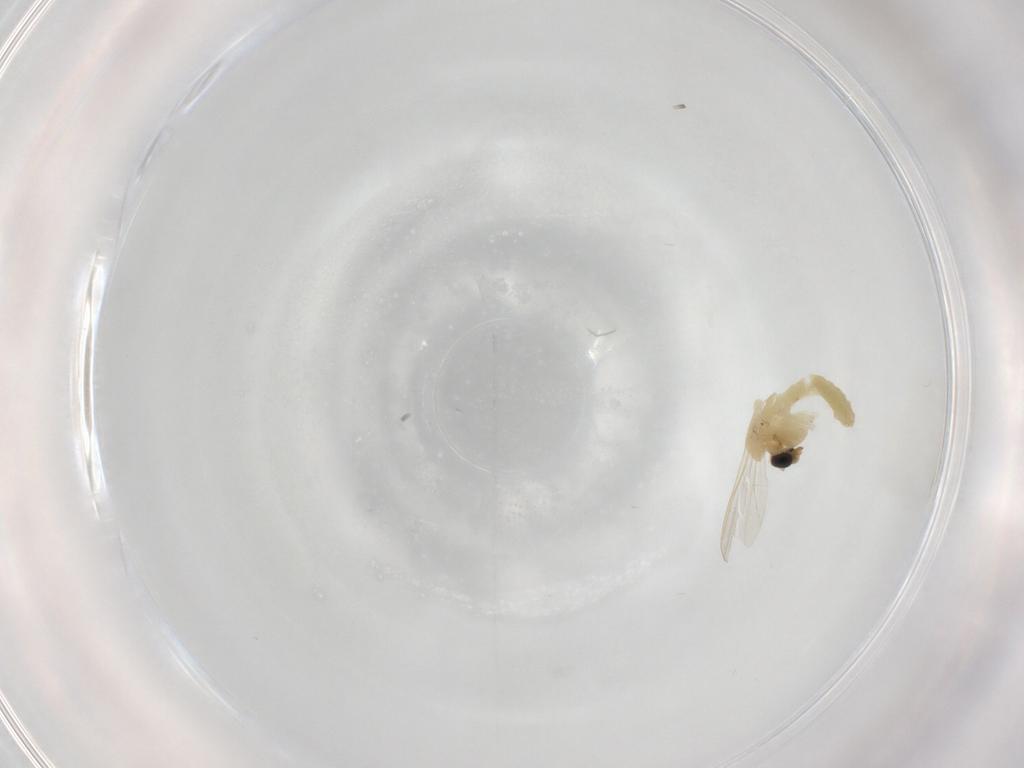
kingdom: Animalia
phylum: Arthropoda
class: Insecta
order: Diptera
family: Chironomidae
